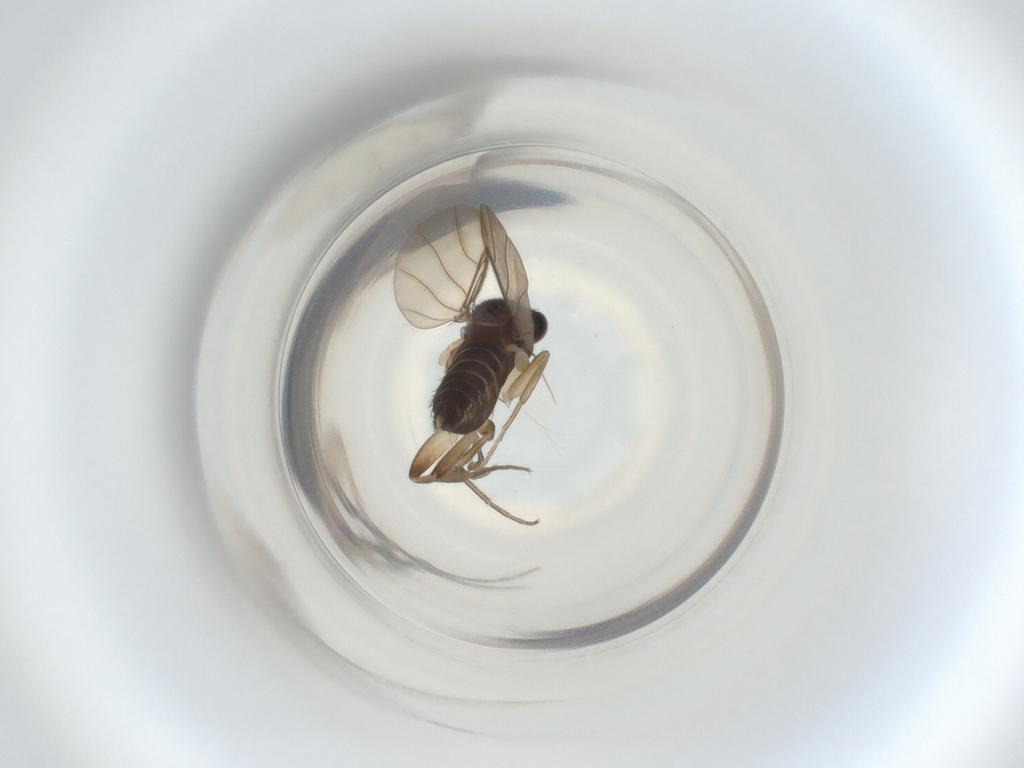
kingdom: Animalia
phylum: Arthropoda
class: Insecta
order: Diptera
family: Phoridae
